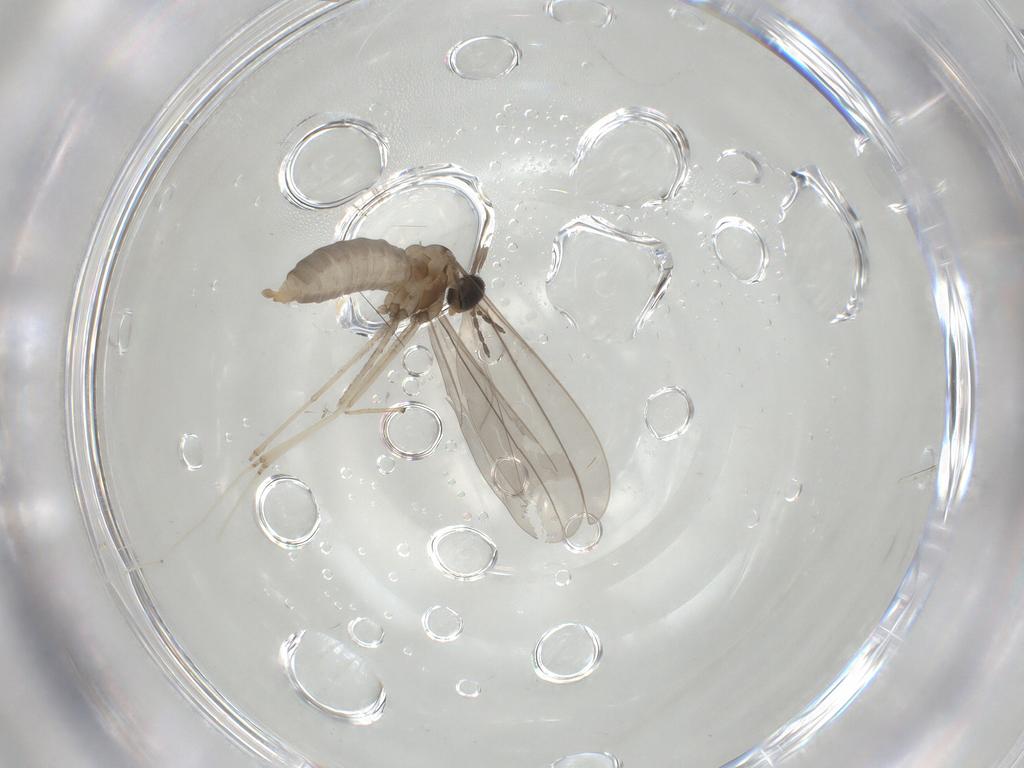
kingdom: Animalia
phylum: Arthropoda
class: Insecta
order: Diptera
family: Cecidomyiidae
